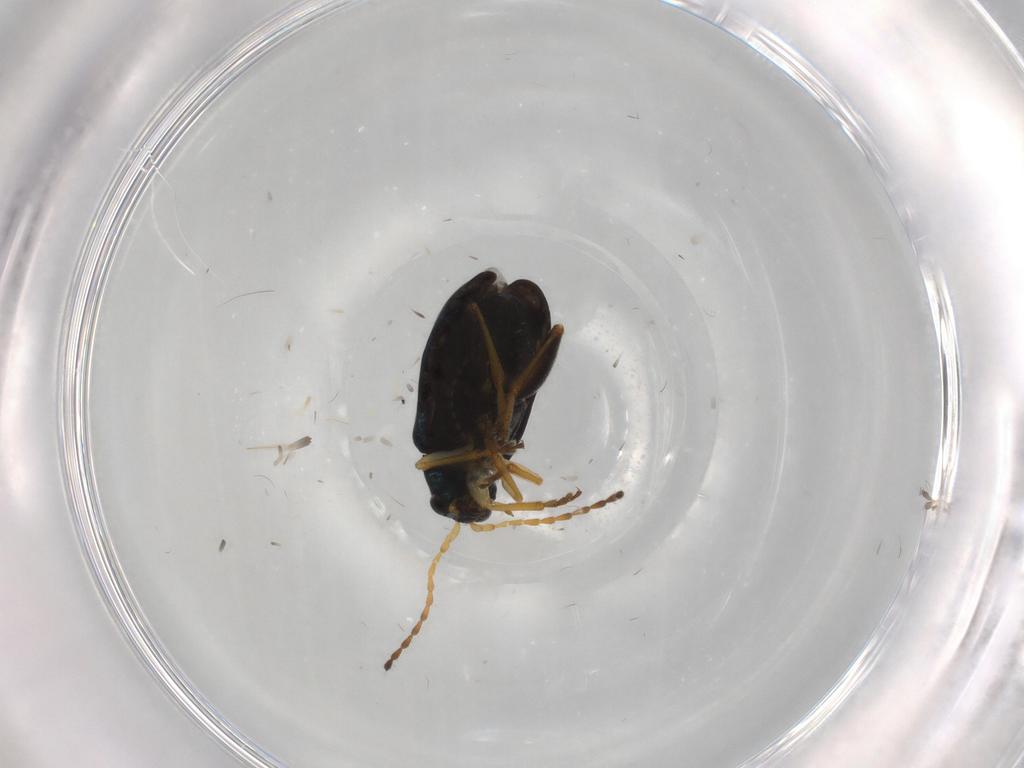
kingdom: Animalia
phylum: Arthropoda
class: Insecta
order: Coleoptera
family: Chrysomelidae
